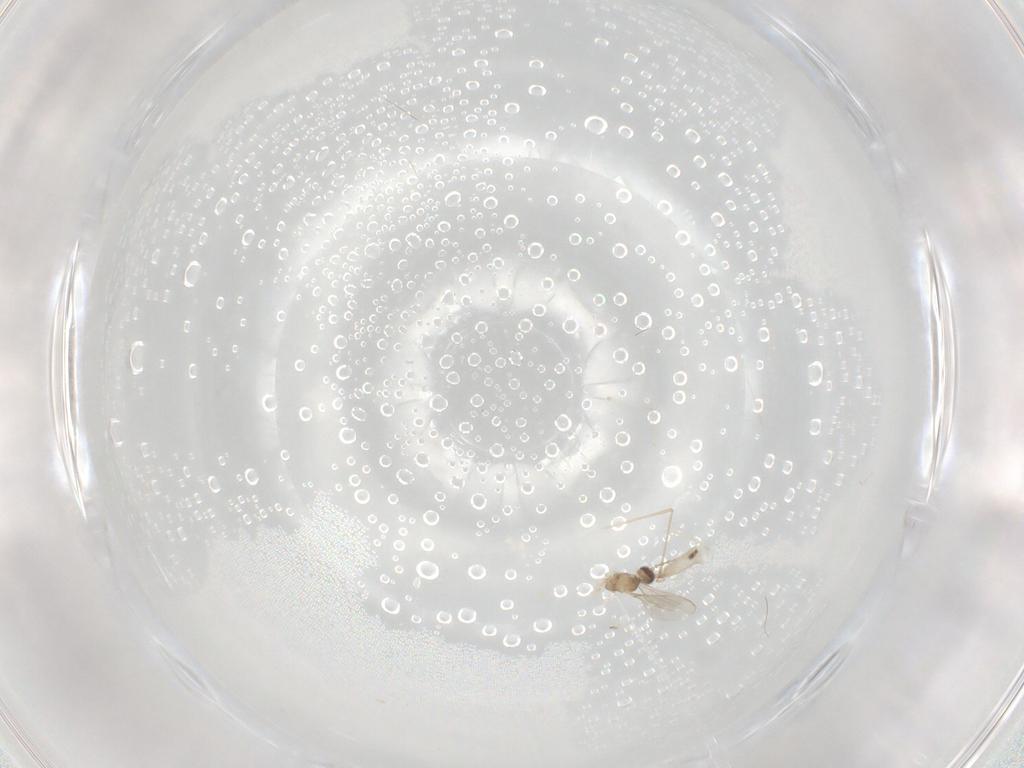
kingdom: Animalia
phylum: Arthropoda
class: Insecta
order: Diptera
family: Cecidomyiidae
